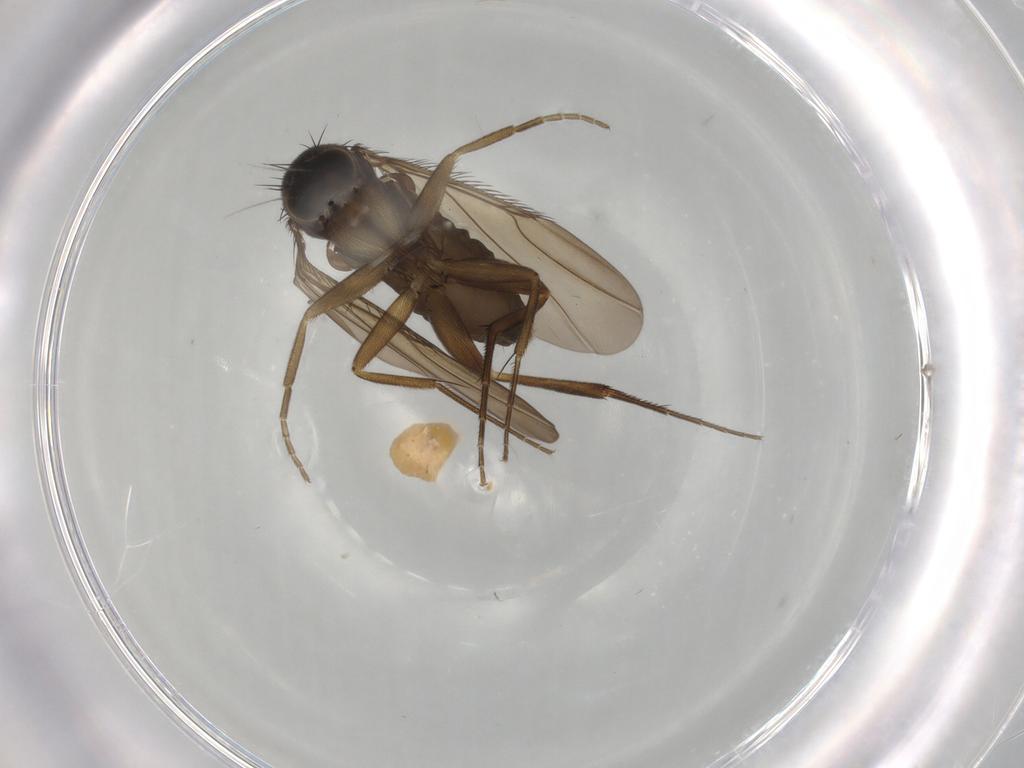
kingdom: Animalia
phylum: Arthropoda
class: Insecta
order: Diptera
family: Phoridae
